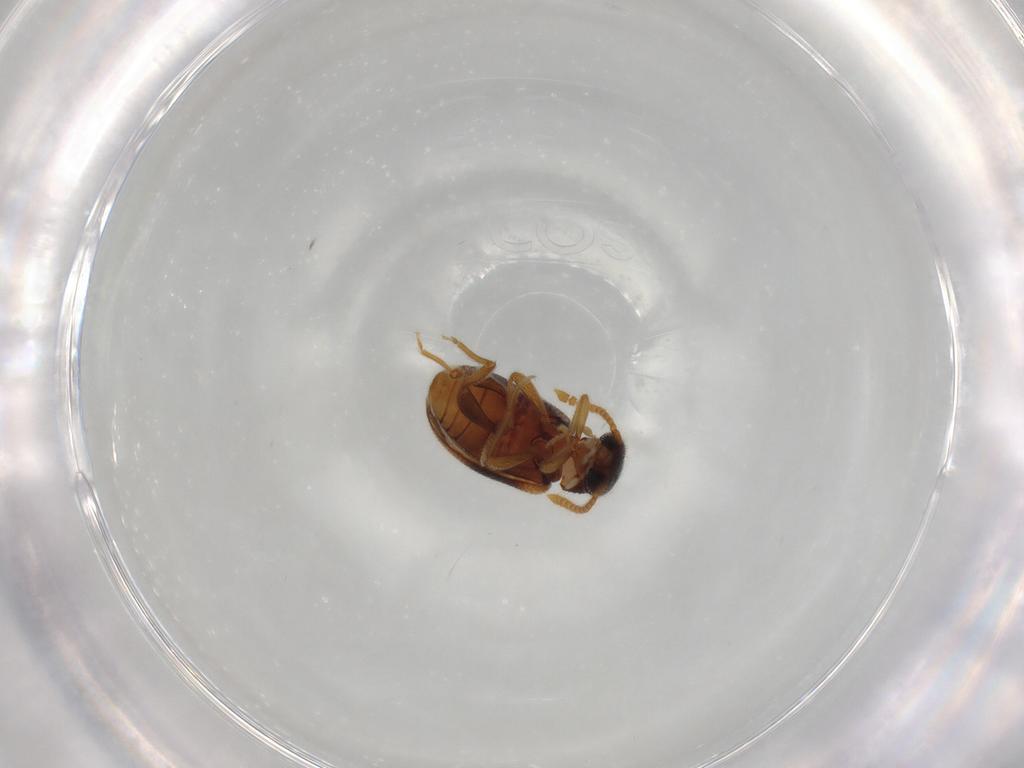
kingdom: Animalia
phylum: Arthropoda
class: Insecta
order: Coleoptera
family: Aderidae
